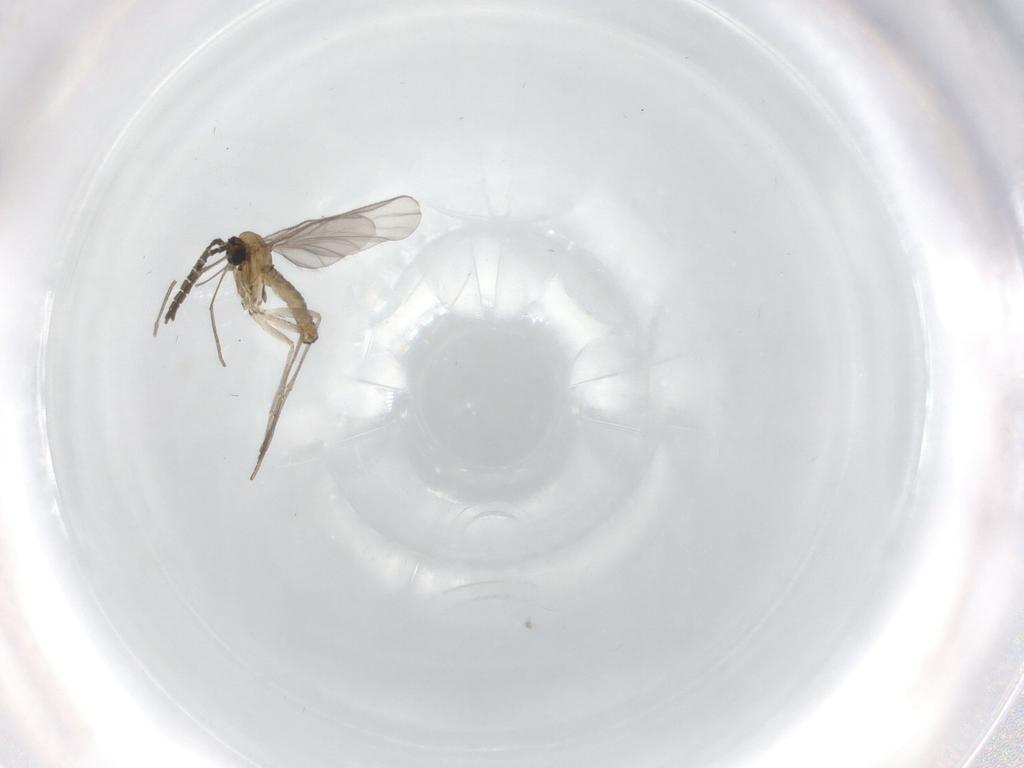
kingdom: Animalia
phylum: Arthropoda
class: Insecta
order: Diptera
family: Sciaridae
